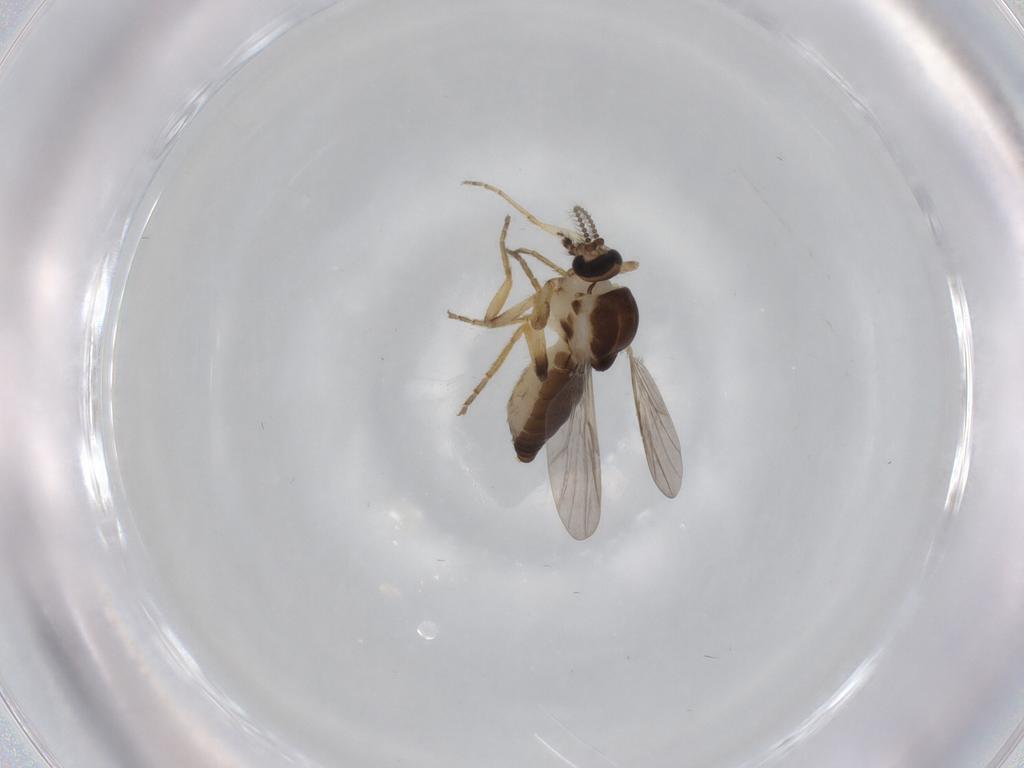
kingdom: Animalia
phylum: Arthropoda
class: Insecta
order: Diptera
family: Ceratopogonidae
